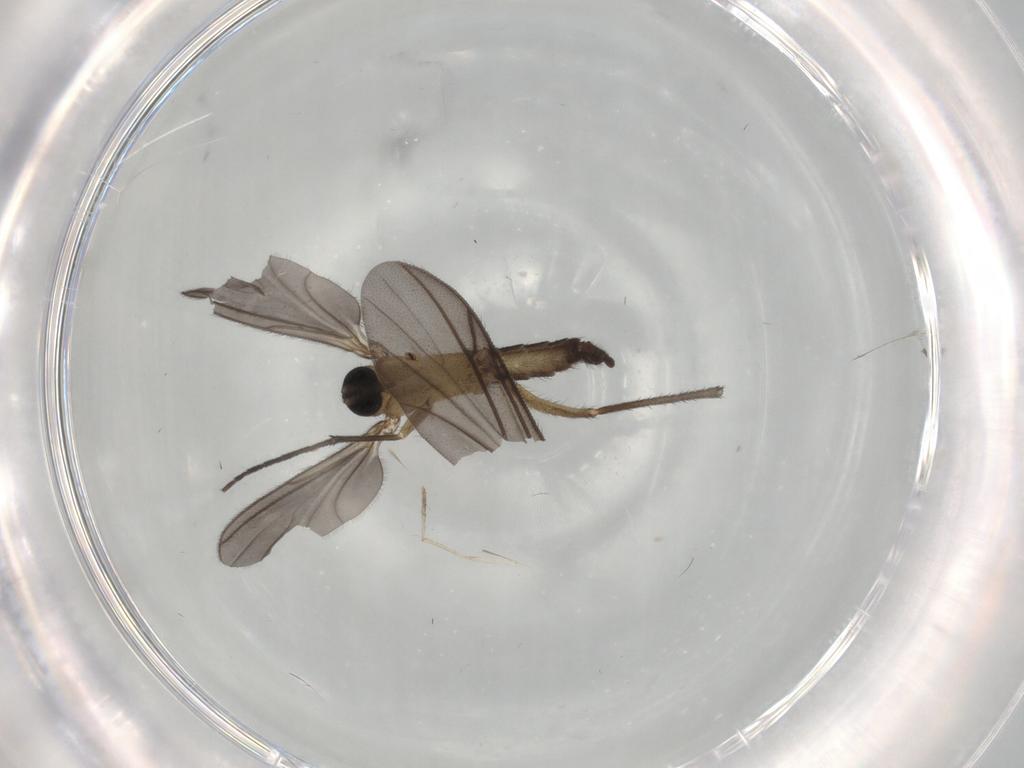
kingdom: Animalia
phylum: Arthropoda
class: Insecta
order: Diptera
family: Sciaridae
